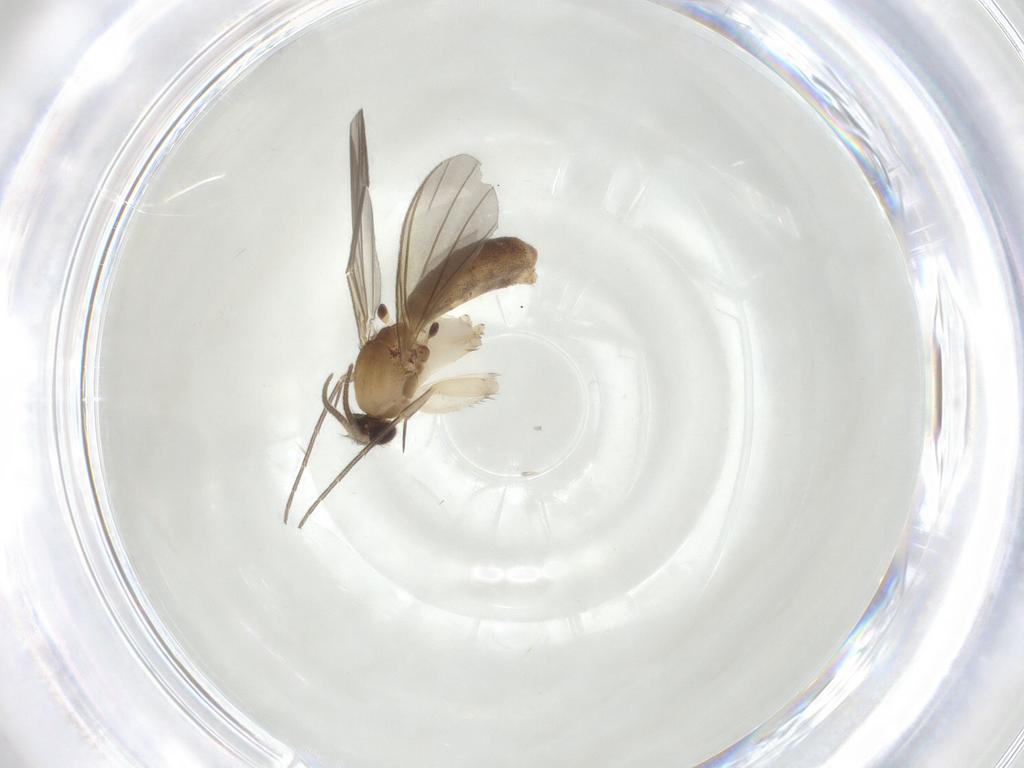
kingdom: Animalia
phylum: Arthropoda
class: Insecta
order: Diptera
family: Mycetophilidae
